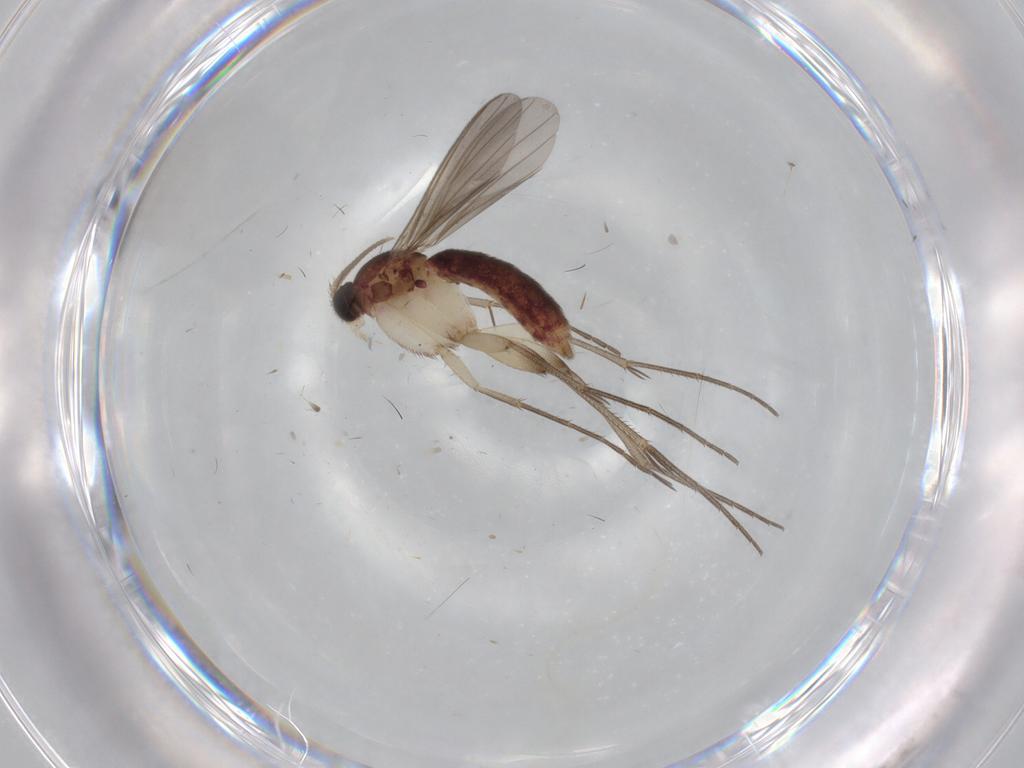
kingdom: Animalia
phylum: Arthropoda
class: Insecta
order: Diptera
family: Mycetophilidae
